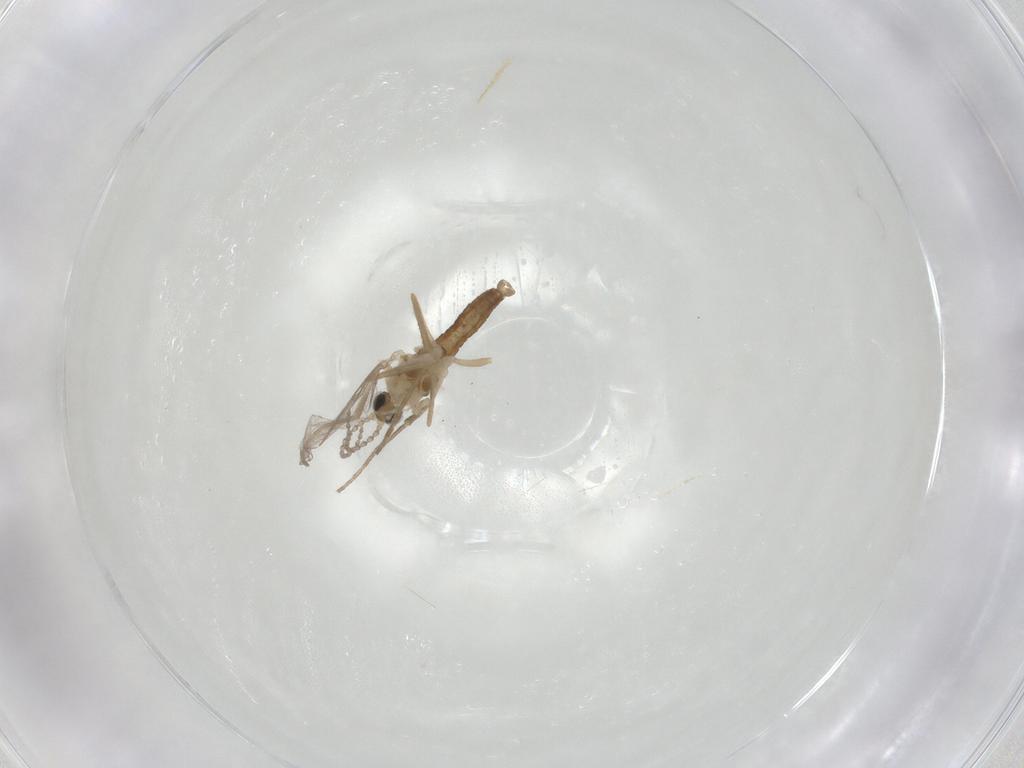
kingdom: Animalia
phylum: Arthropoda
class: Insecta
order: Diptera
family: Cecidomyiidae
